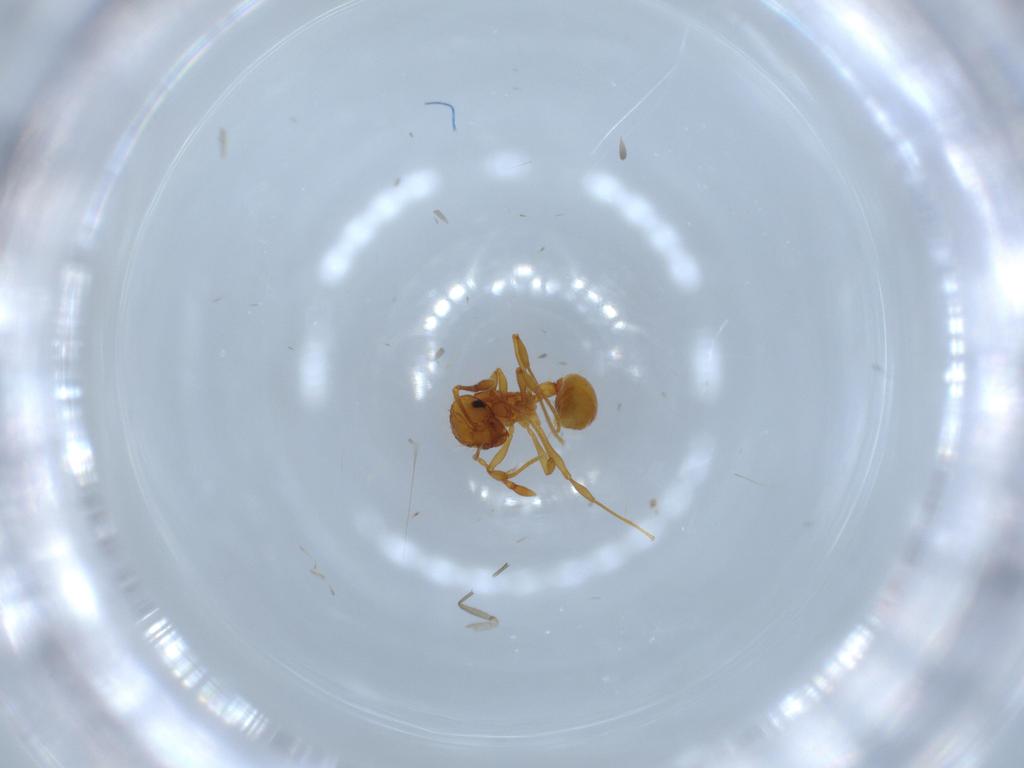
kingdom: Animalia
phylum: Arthropoda
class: Insecta
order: Hymenoptera
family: Formicidae
